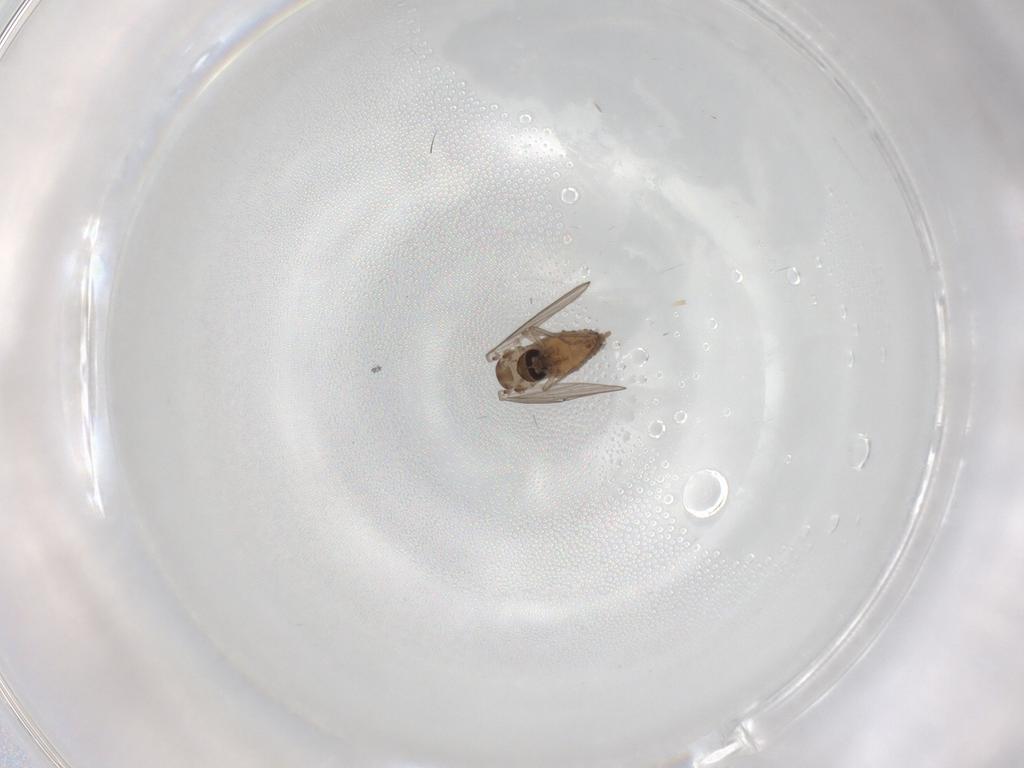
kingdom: Animalia
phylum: Arthropoda
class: Insecta
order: Diptera
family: Psychodidae
